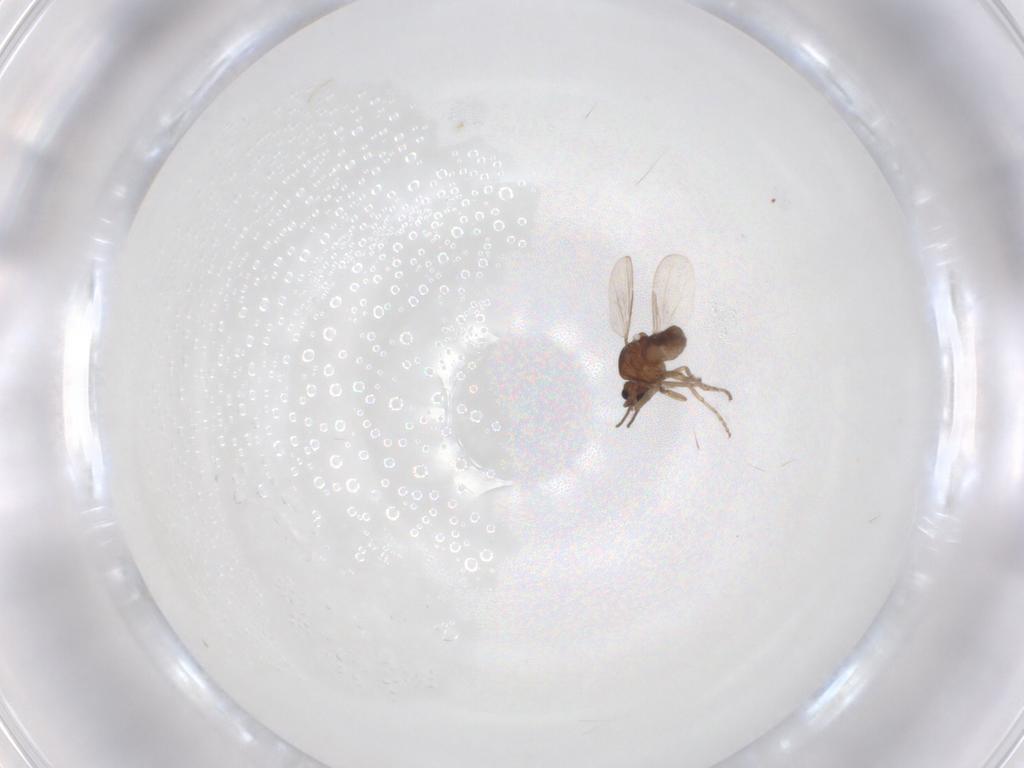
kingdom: Animalia
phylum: Arthropoda
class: Insecta
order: Diptera
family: Ceratopogonidae
